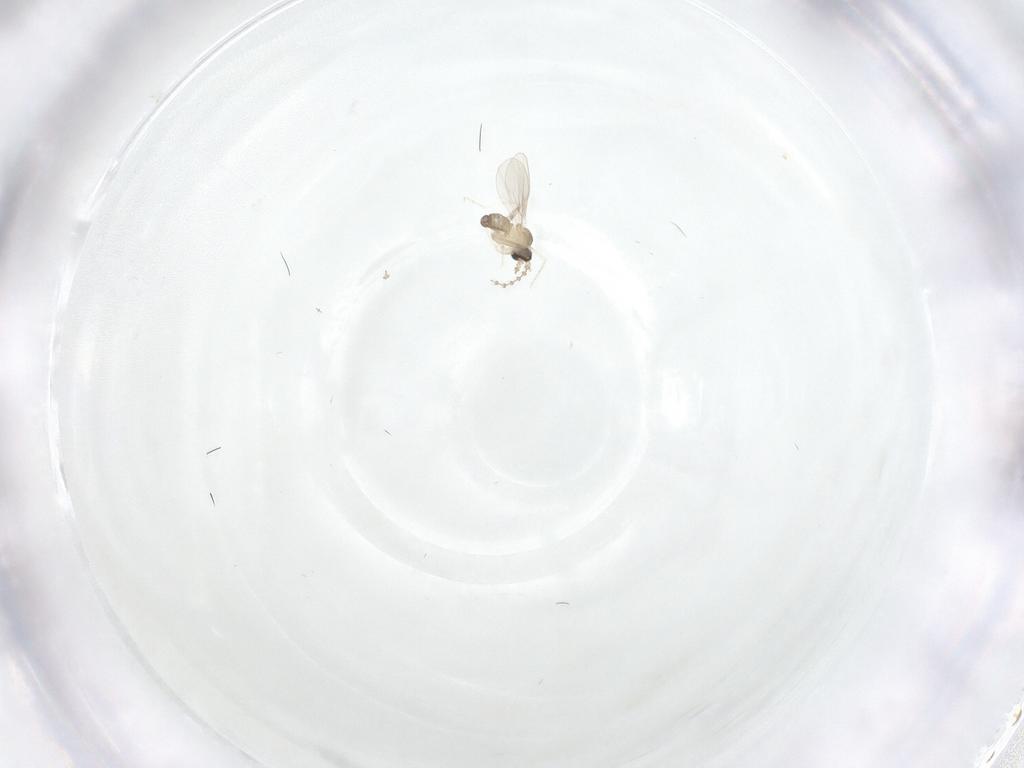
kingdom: Animalia
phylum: Arthropoda
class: Insecta
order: Diptera
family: Cecidomyiidae
